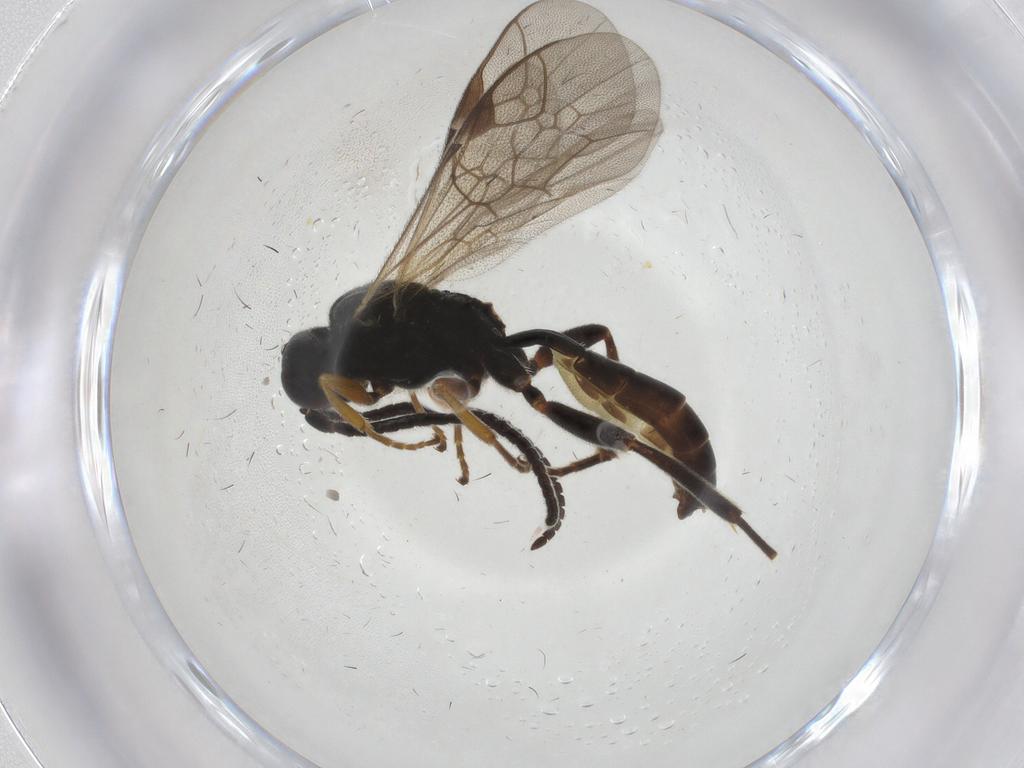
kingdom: Animalia
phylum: Arthropoda
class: Insecta
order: Hymenoptera
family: Ichneumonidae
